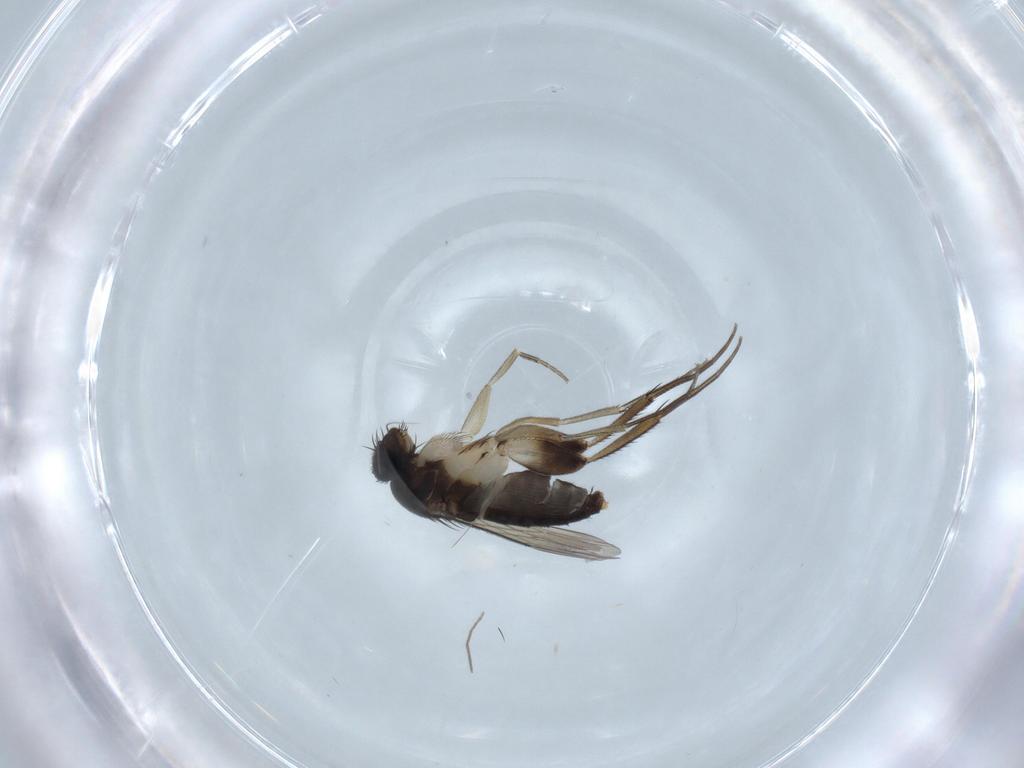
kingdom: Animalia
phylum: Arthropoda
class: Insecta
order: Diptera
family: Phoridae
